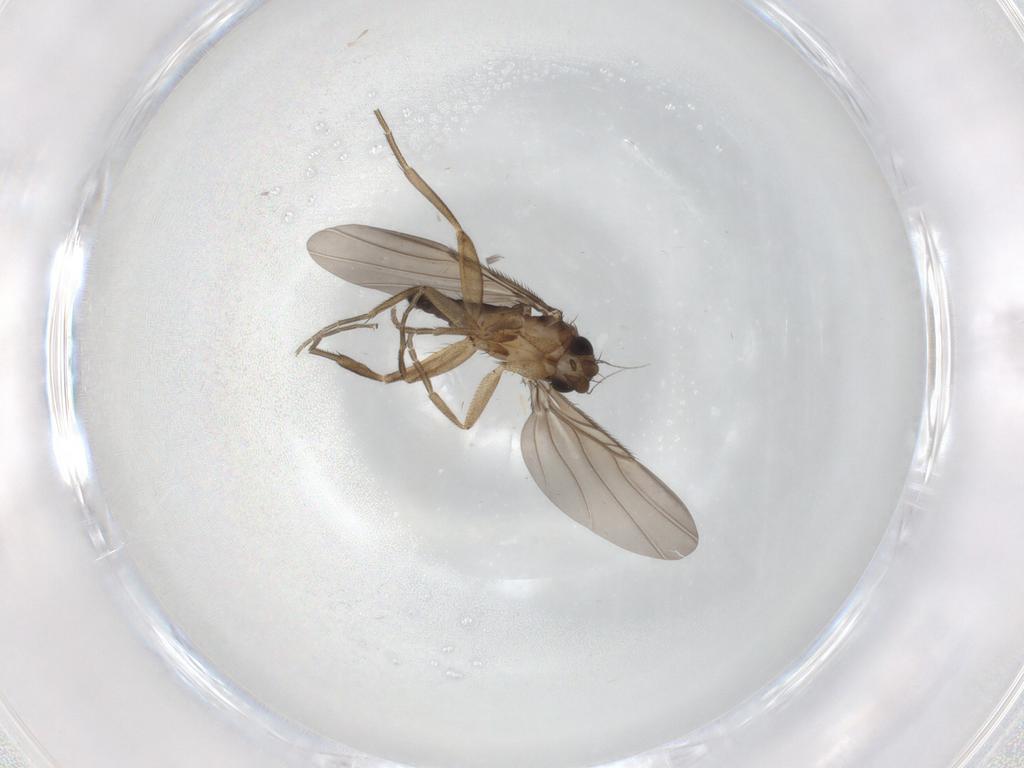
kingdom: Animalia
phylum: Arthropoda
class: Insecta
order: Diptera
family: Phoridae
